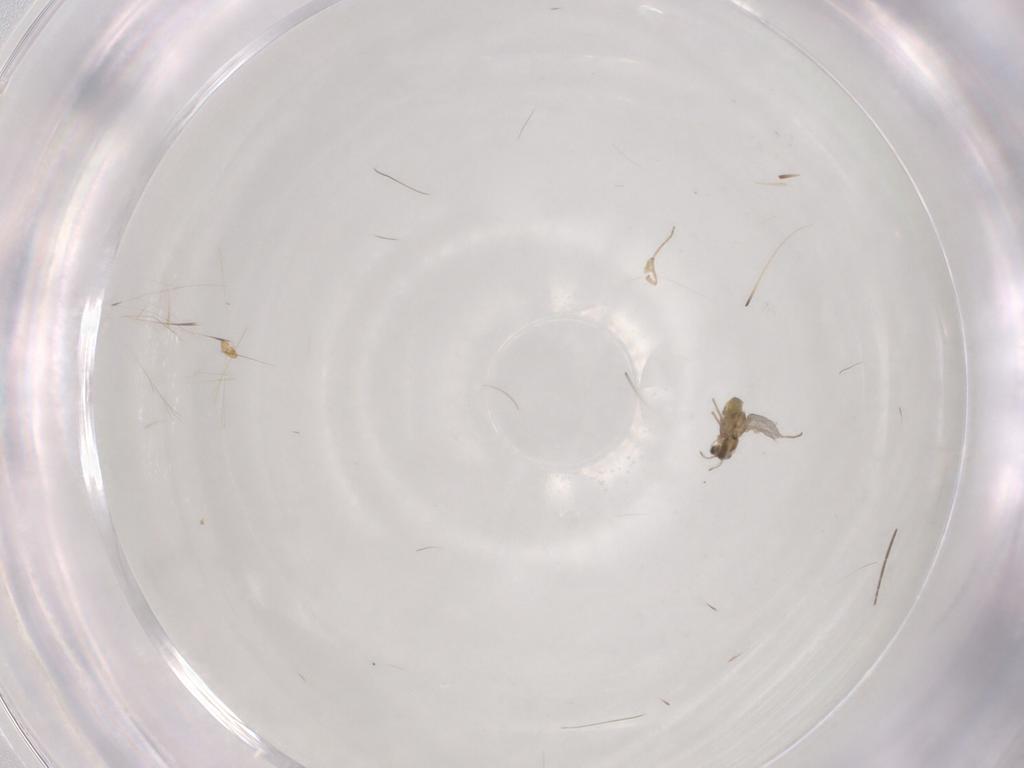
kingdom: Animalia
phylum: Arthropoda
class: Insecta
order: Diptera
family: Chironomidae
